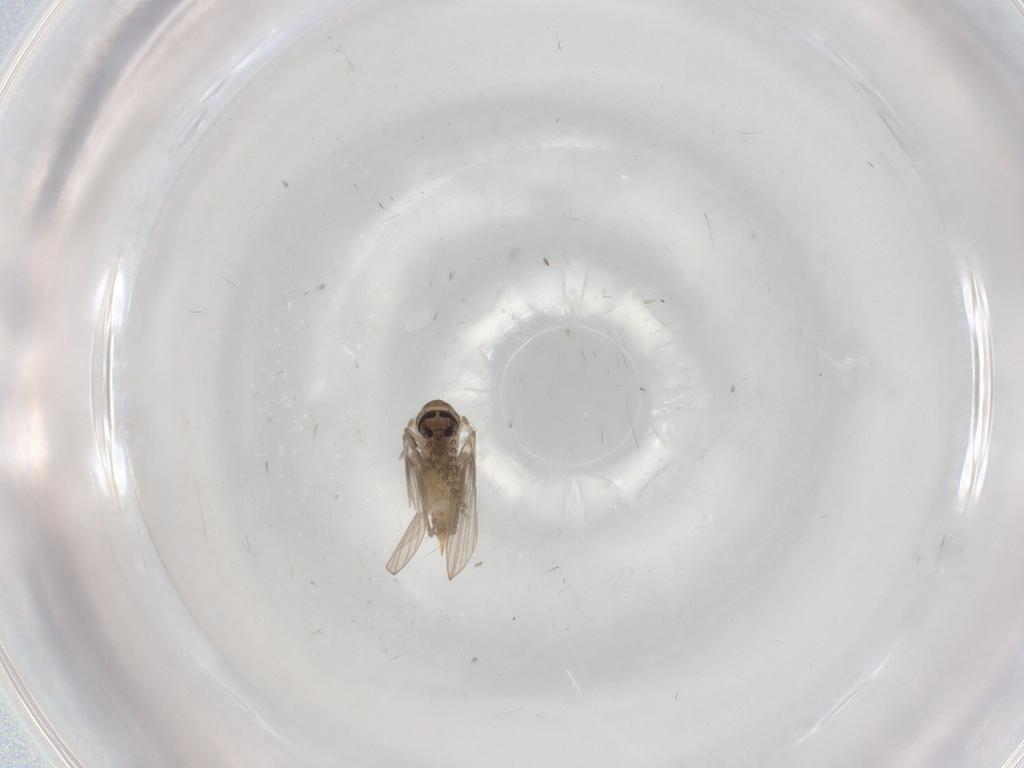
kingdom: Animalia
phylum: Arthropoda
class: Insecta
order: Diptera
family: Psychodidae
